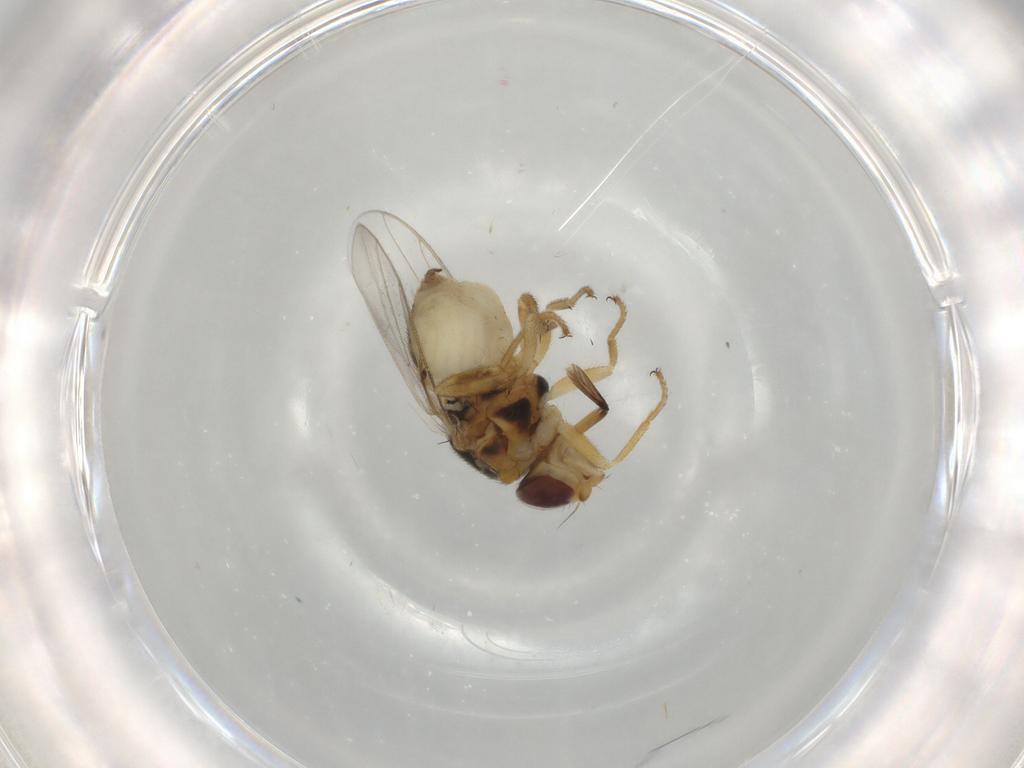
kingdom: Animalia
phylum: Arthropoda
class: Insecta
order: Diptera
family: Chloropidae
